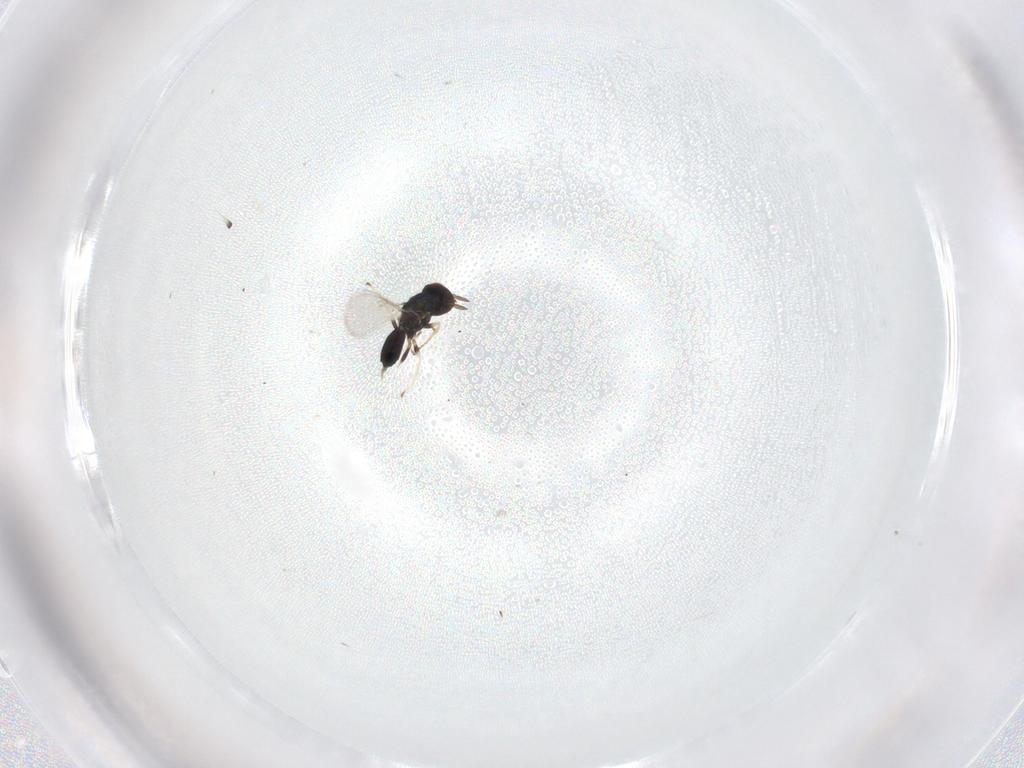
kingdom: Animalia
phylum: Arthropoda
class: Insecta
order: Hymenoptera
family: Eulophidae
